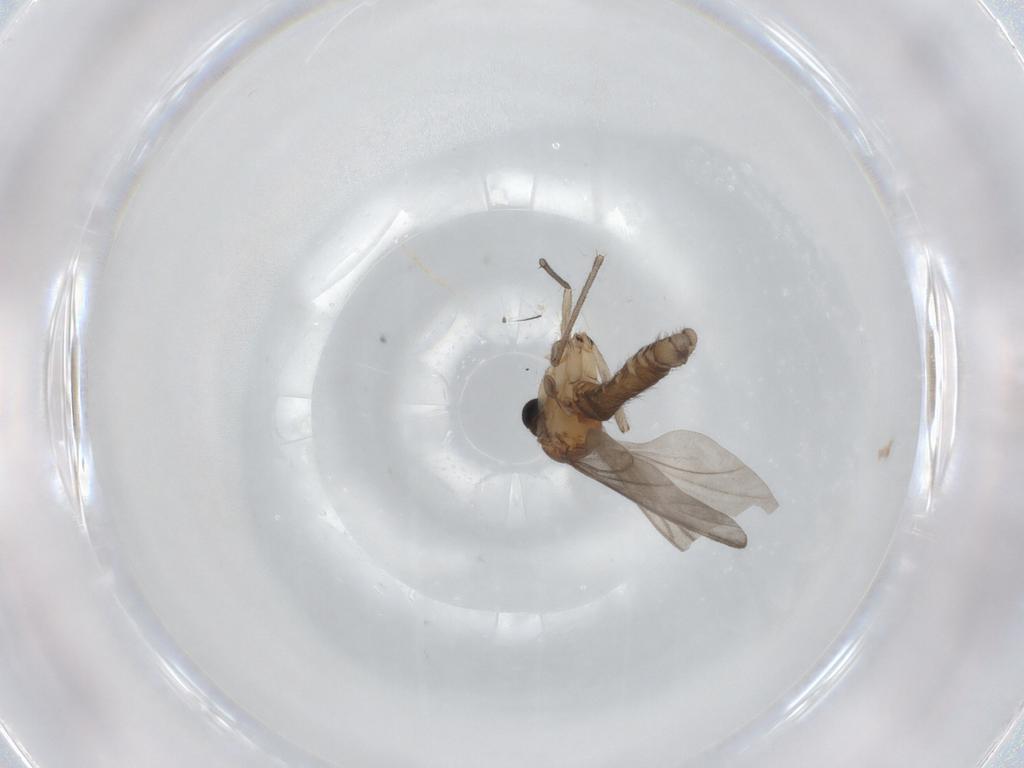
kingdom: Animalia
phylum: Arthropoda
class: Insecta
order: Diptera
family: Sciaridae
